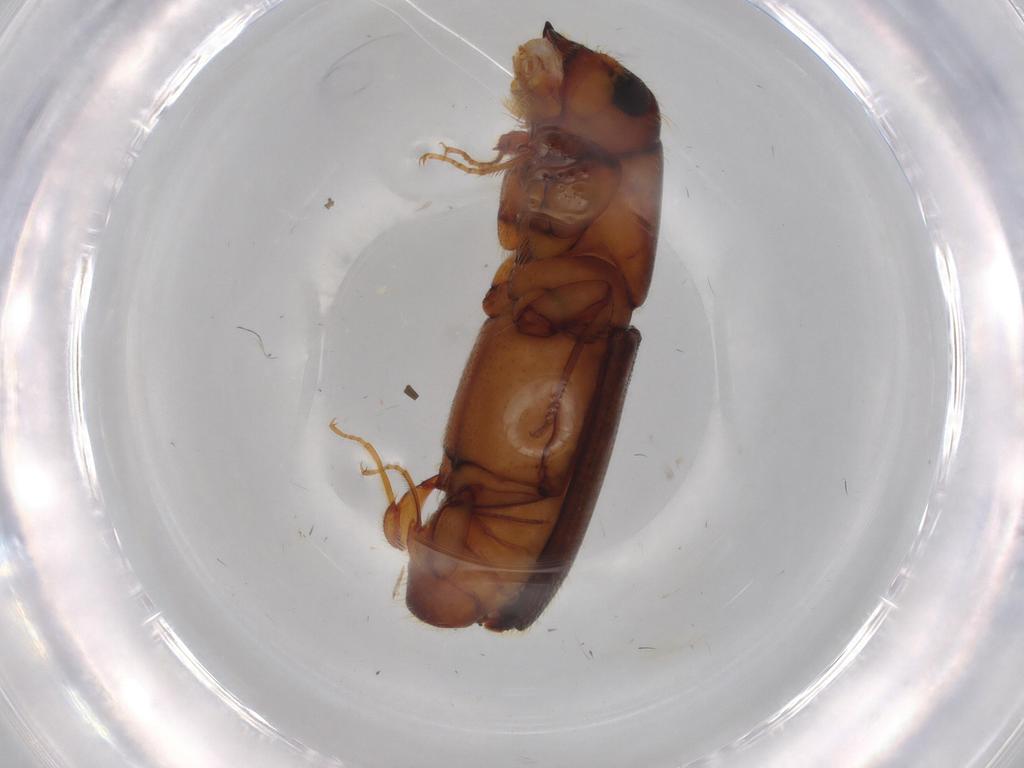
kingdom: Animalia
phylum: Arthropoda
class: Insecta
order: Coleoptera
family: Curculionidae
